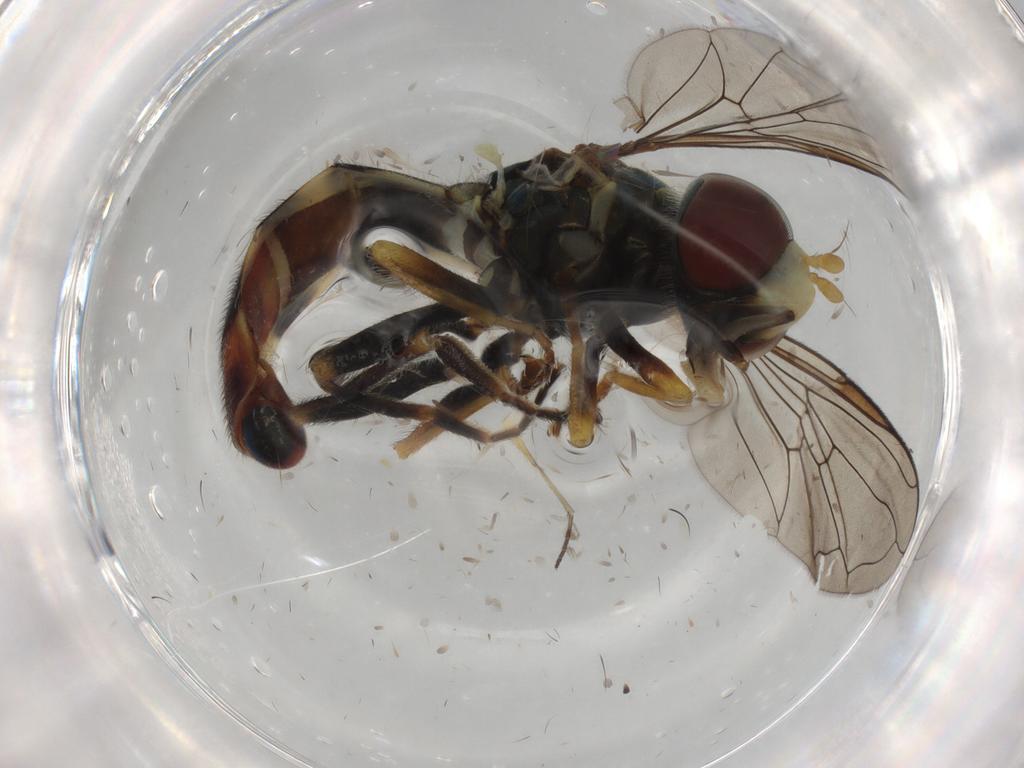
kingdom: Animalia
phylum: Arthropoda
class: Insecta
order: Diptera
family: Syrphidae
